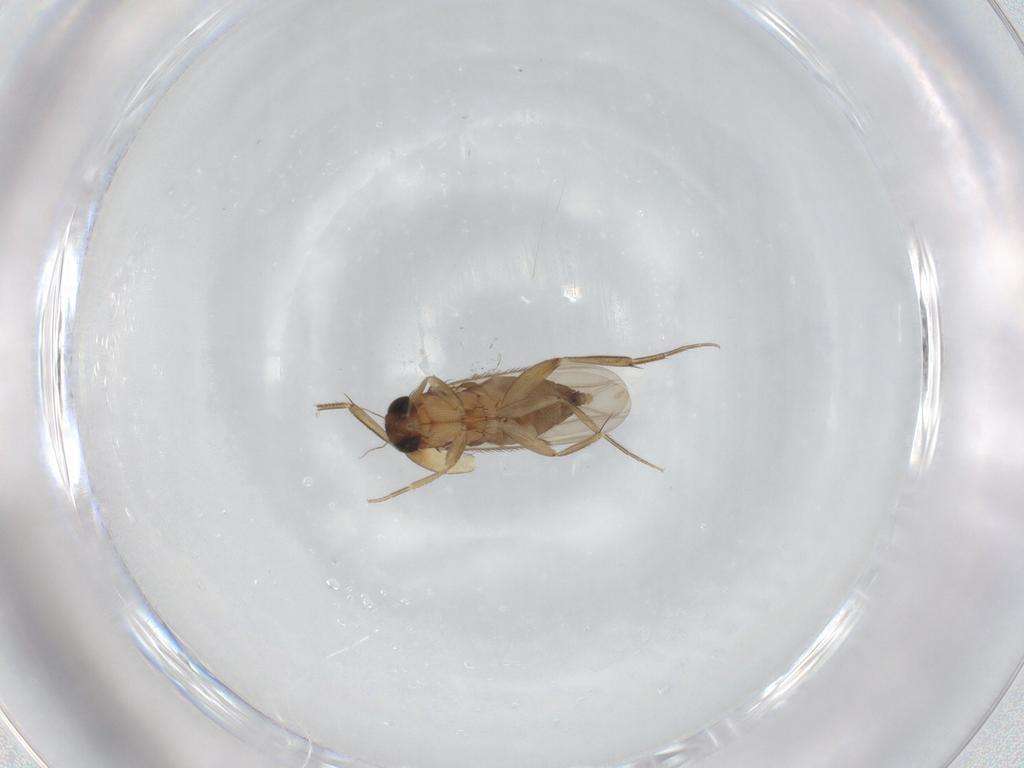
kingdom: Animalia
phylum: Arthropoda
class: Insecta
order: Diptera
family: Phoridae
